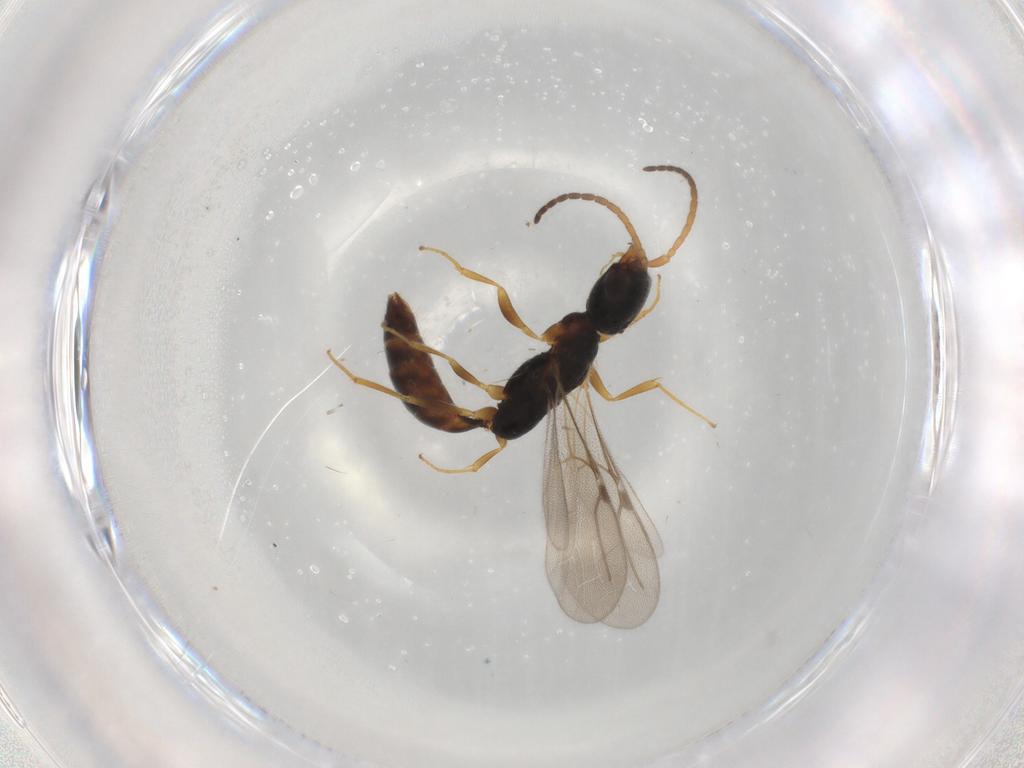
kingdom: Animalia
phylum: Arthropoda
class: Insecta
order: Hymenoptera
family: Bethylidae
